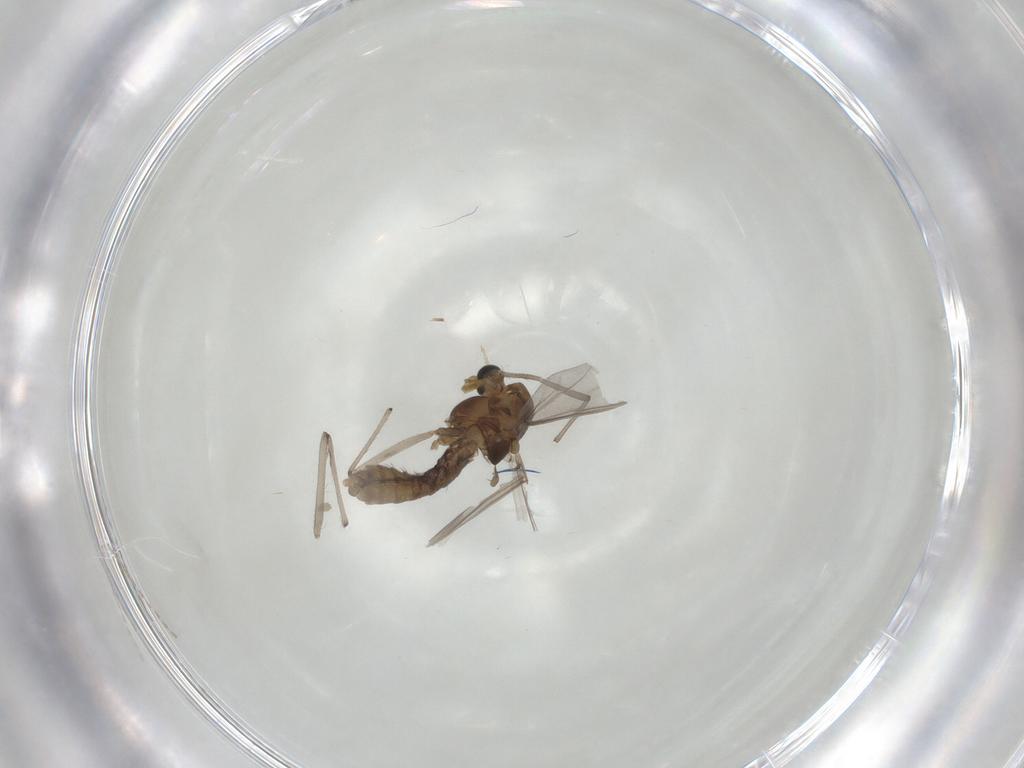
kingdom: Animalia
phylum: Arthropoda
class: Insecta
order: Diptera
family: Chironomidae
